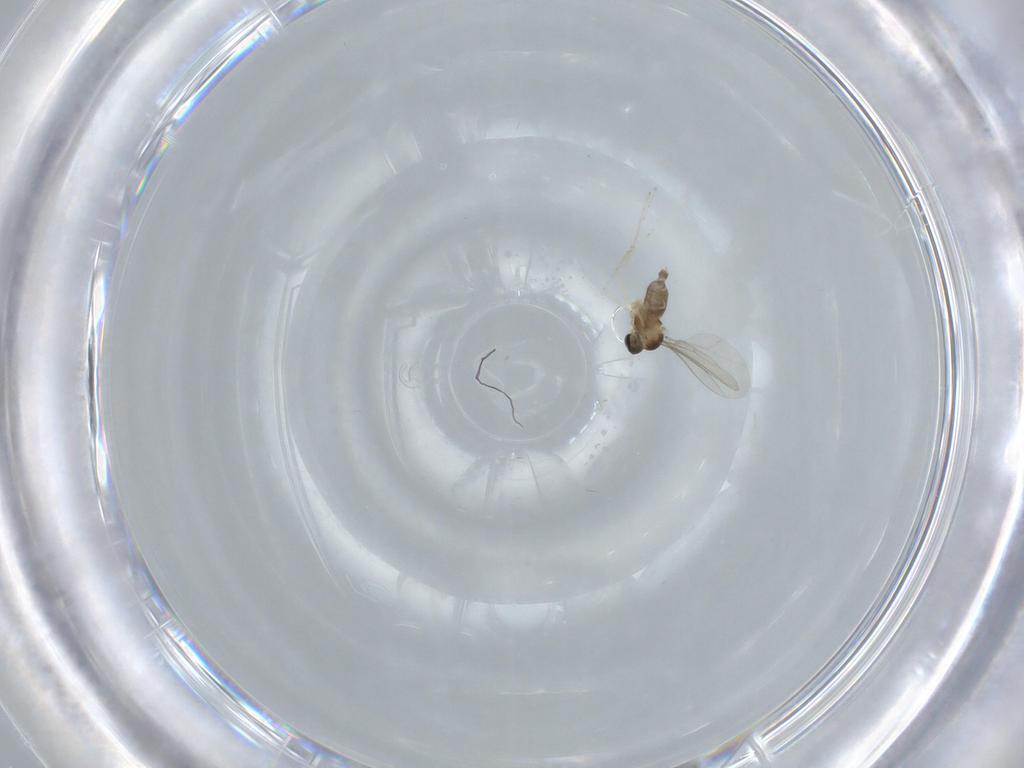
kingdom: Animalia
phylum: Arthropoda
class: Insecta
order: Diptera
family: Cecidomyiidae
